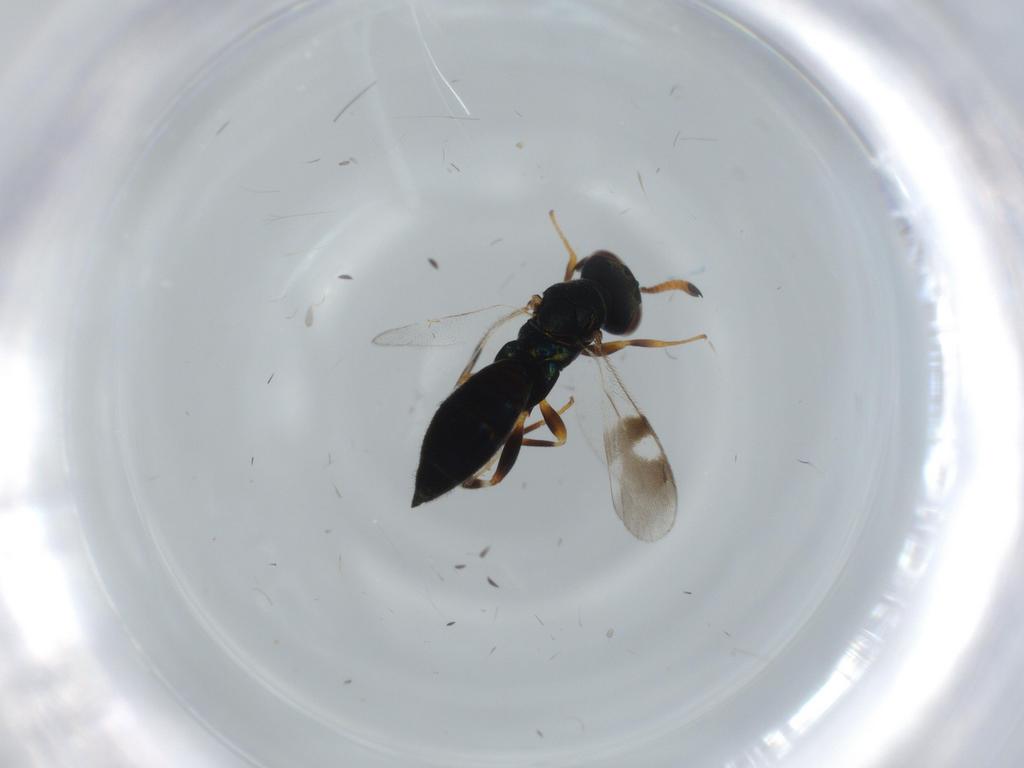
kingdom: Animalia
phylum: Arthropoda
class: Insecta
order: Hymenoptera
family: Cleonyminae
